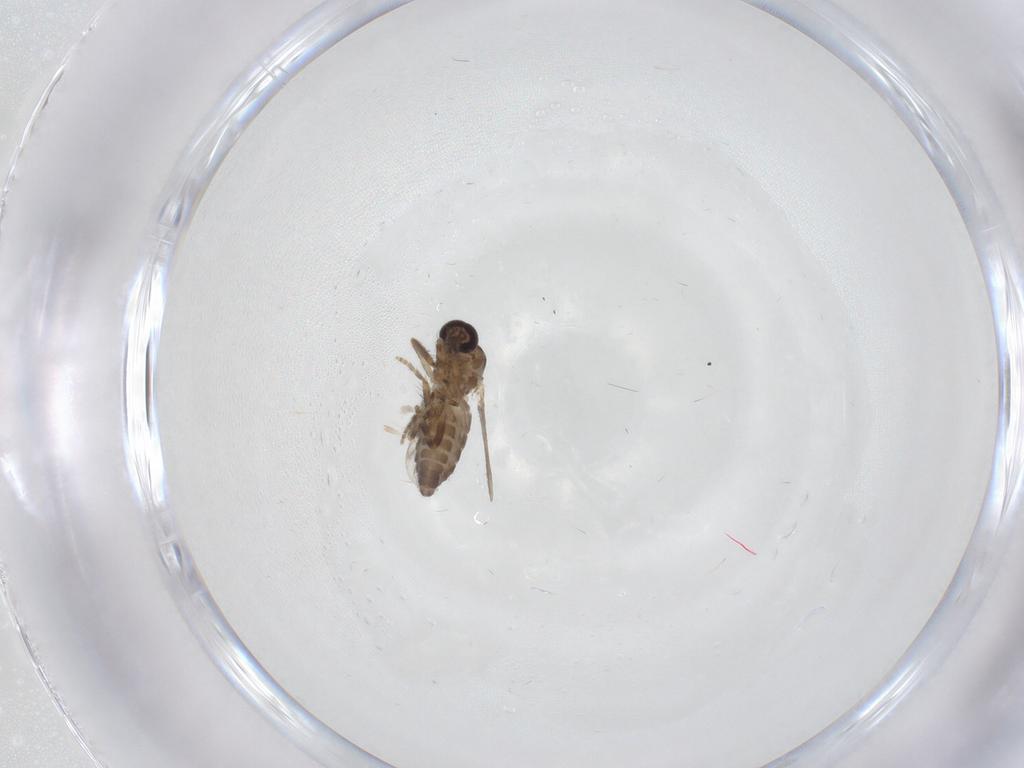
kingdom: Animalia
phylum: Arthropoda
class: Insecta
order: Diptera
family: Ceratopogonidae
